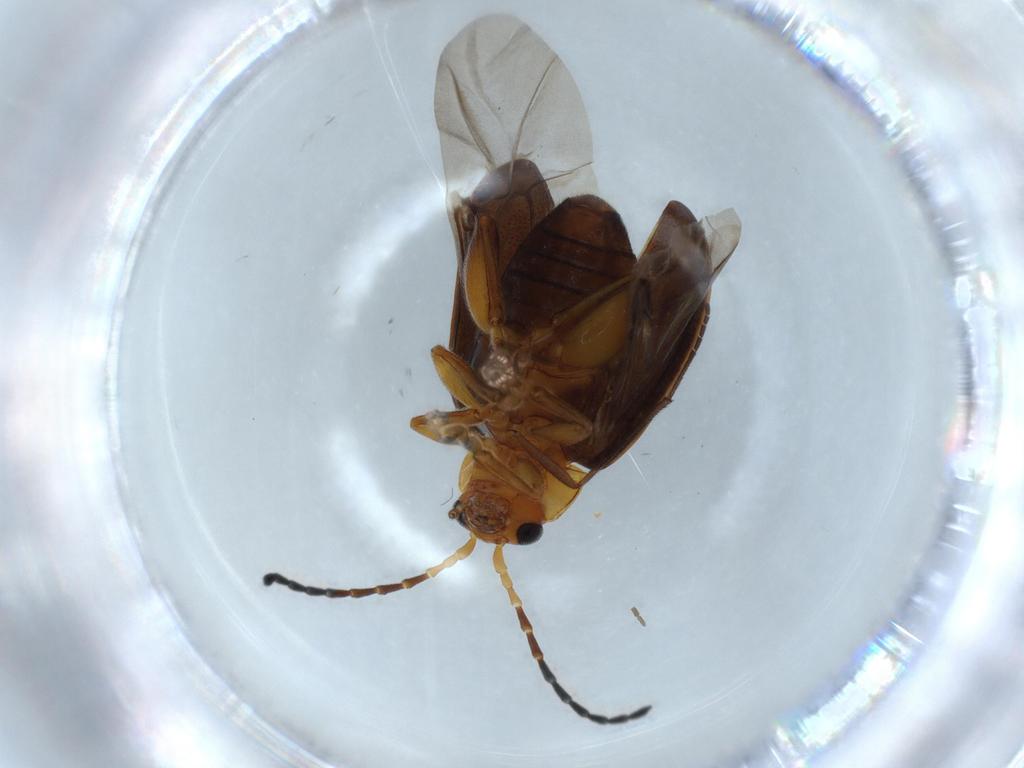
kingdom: Animalia
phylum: Arthropoda
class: Insecta
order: Coleoptera
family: Chrysomelidae
